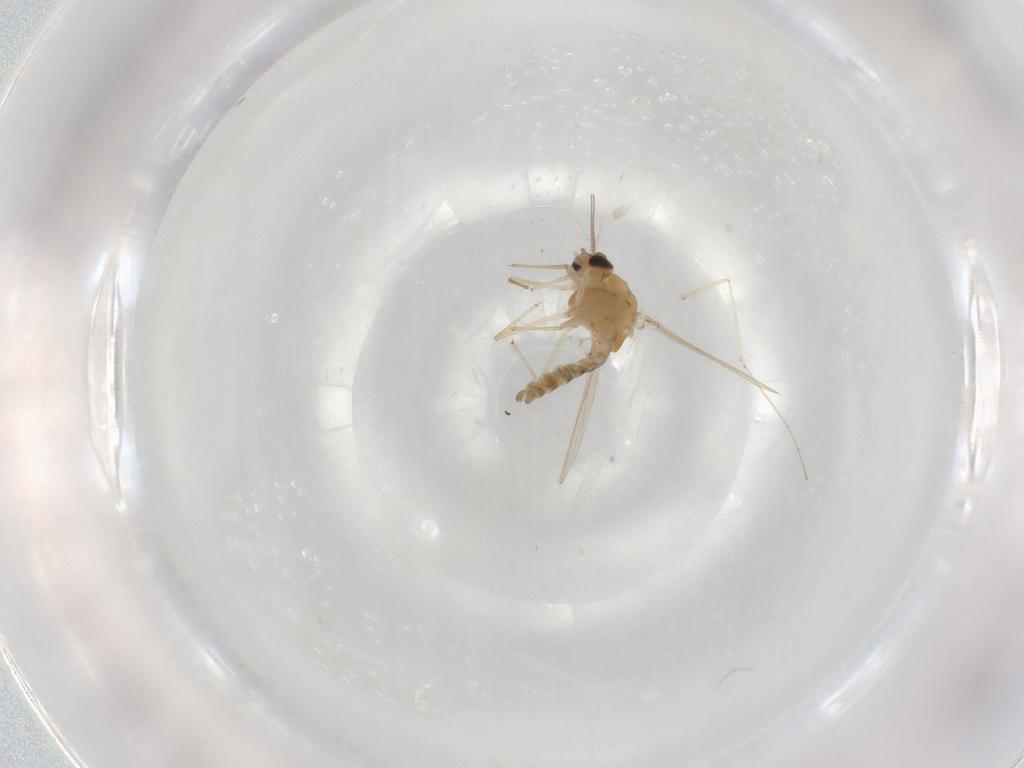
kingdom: Animalia
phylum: Arthropoda
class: Insecta
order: Diptera
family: Chironomidae
